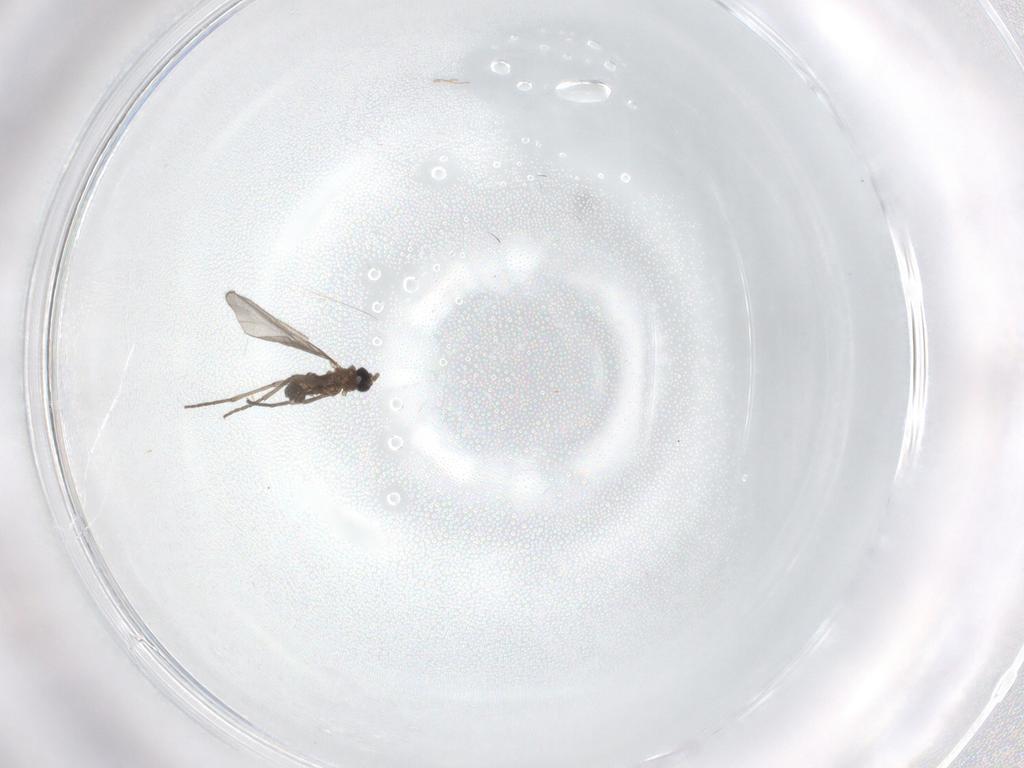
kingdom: Animalia
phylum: Arthropoda
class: Insecta
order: Diptera
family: Sciaridae
